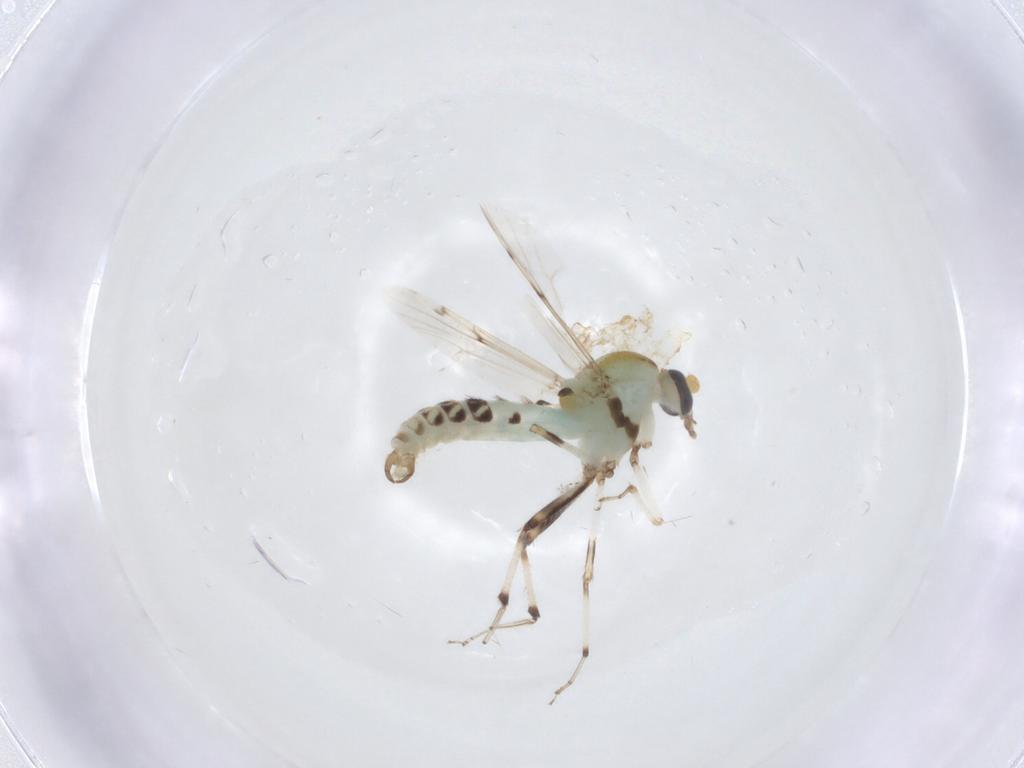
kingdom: Animalia
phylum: Arthropoda
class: Insecta
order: Diptera
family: Ceratopogonidae
